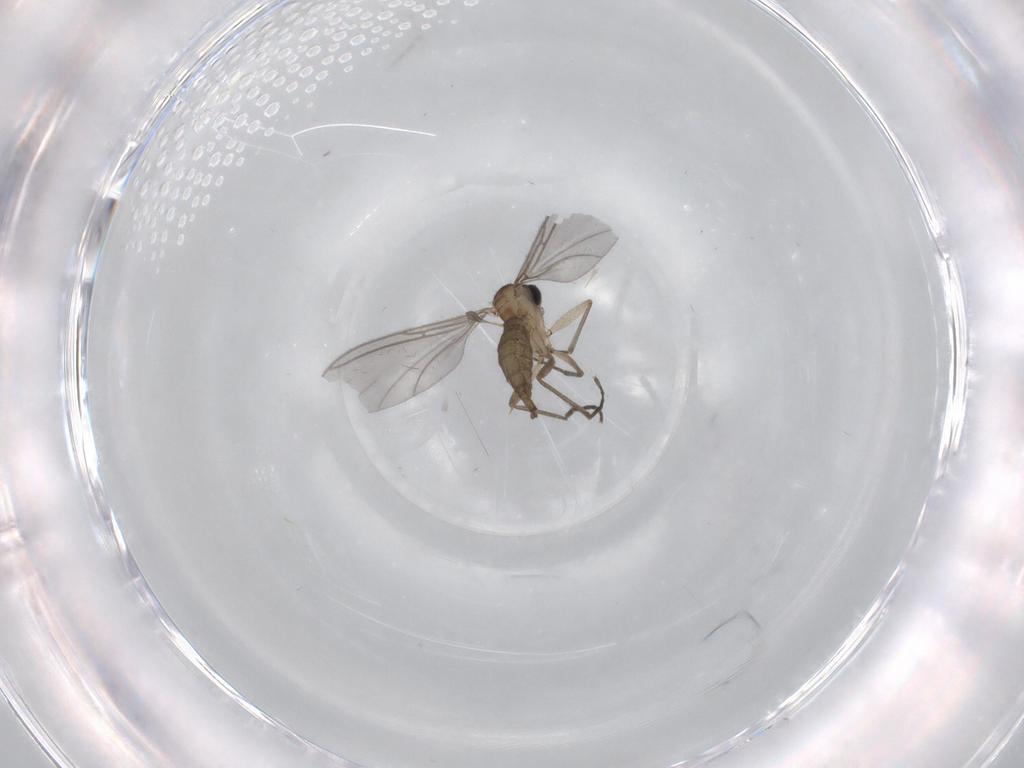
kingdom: Animalia
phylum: Arthropoda
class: Insecta
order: Diptera
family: Sciaridae
